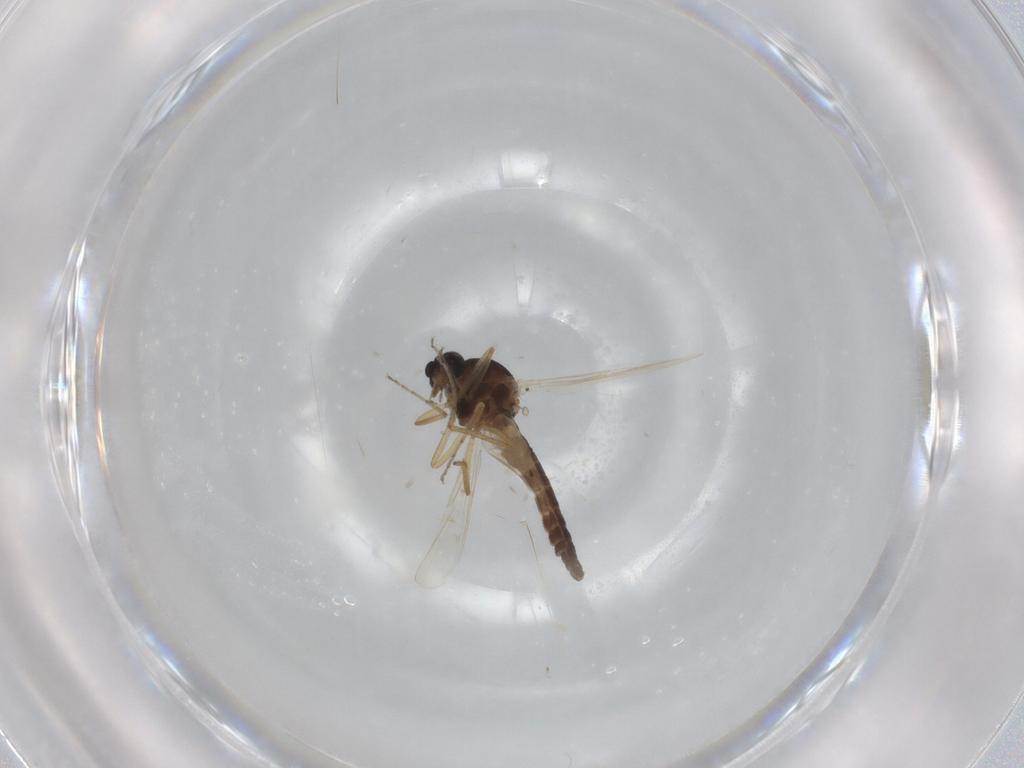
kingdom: Animalia
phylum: Arthropoda
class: Insecta
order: Diptera
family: Ceratopogonidae
